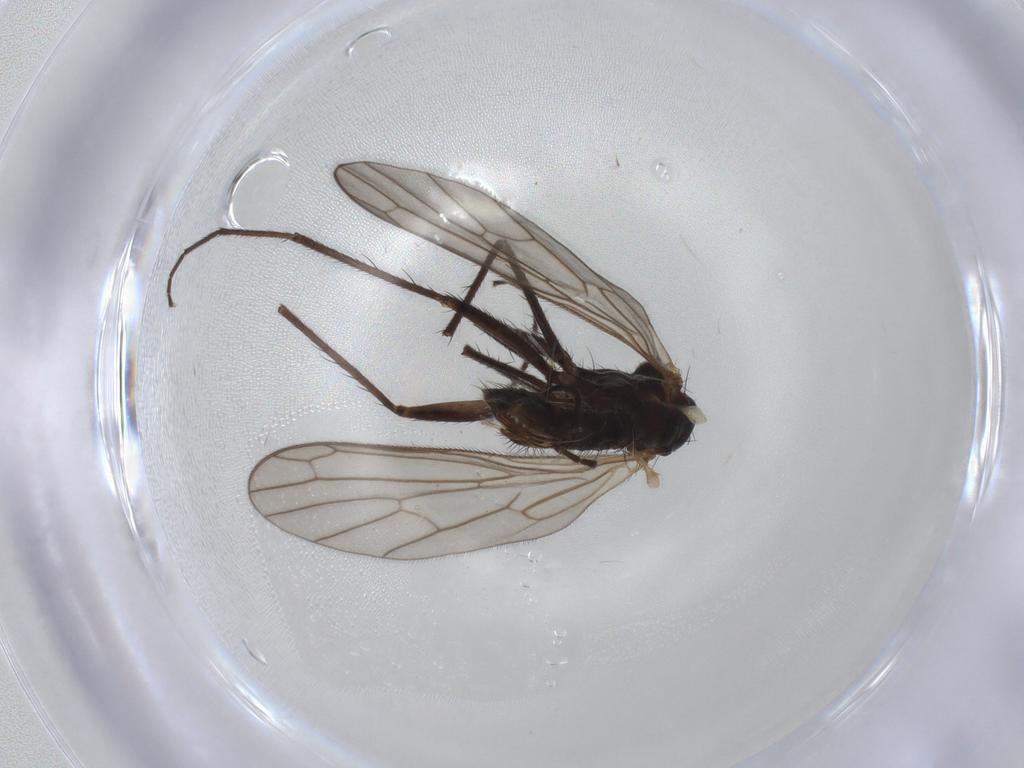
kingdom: Animalia
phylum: Arthropoda
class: Insecta
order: Diptera
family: Empididae
